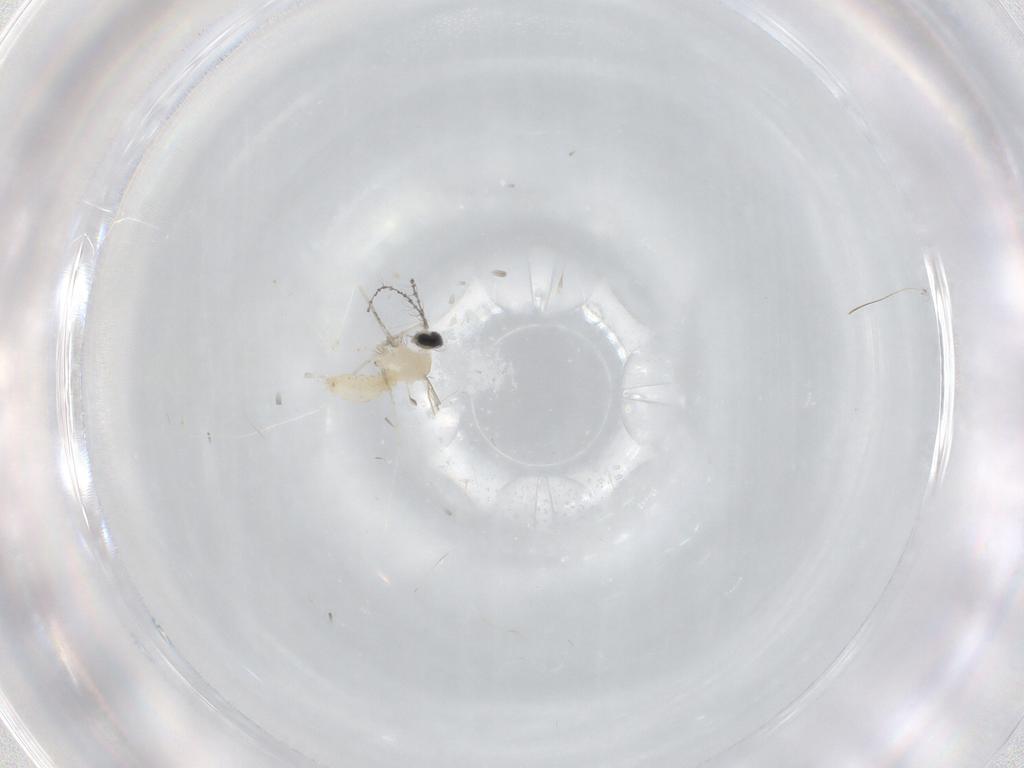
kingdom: Animalia
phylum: Arthropoda
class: Insecta
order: Diptera
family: Cecidomyiidae
